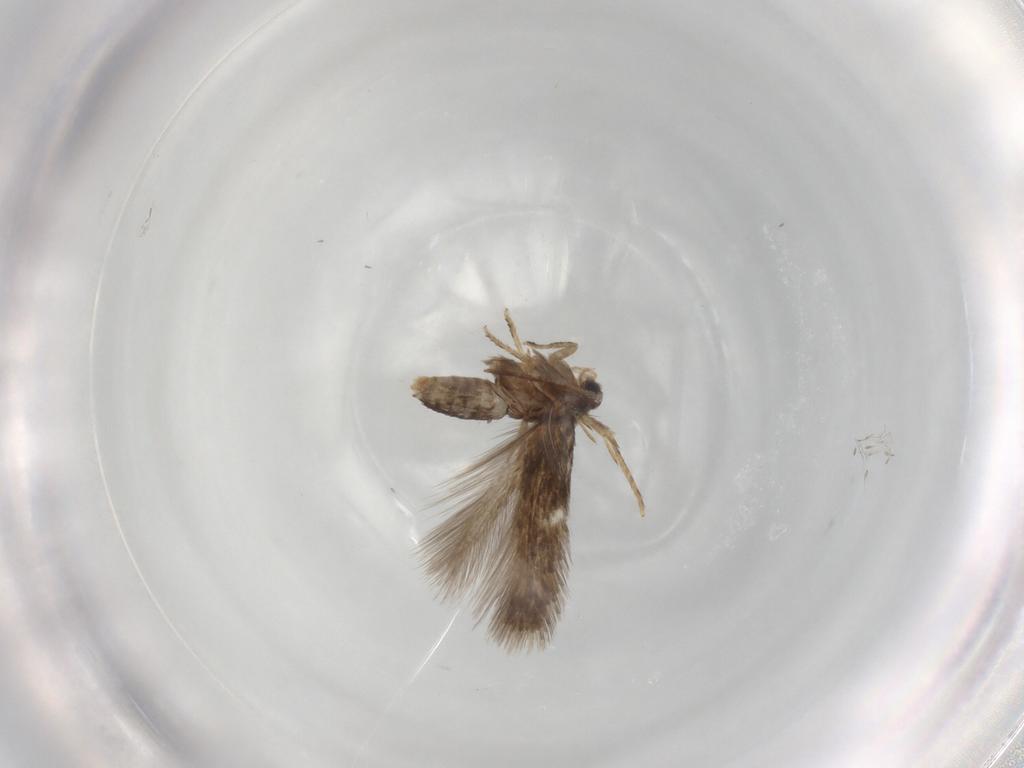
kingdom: Animalia
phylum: Arthropoda
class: Insecta
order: Lepidoptera
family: Nepticulidae
